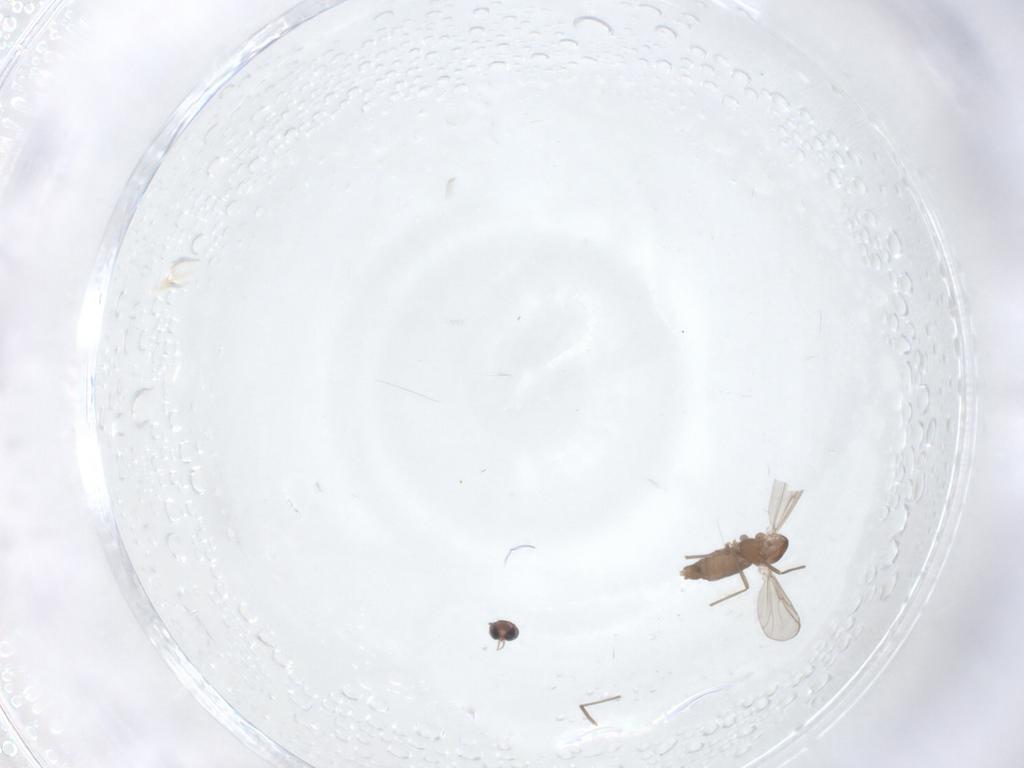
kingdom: Animalia
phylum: Arthropoda
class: Insecta
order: Diptera
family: Chironomidae
